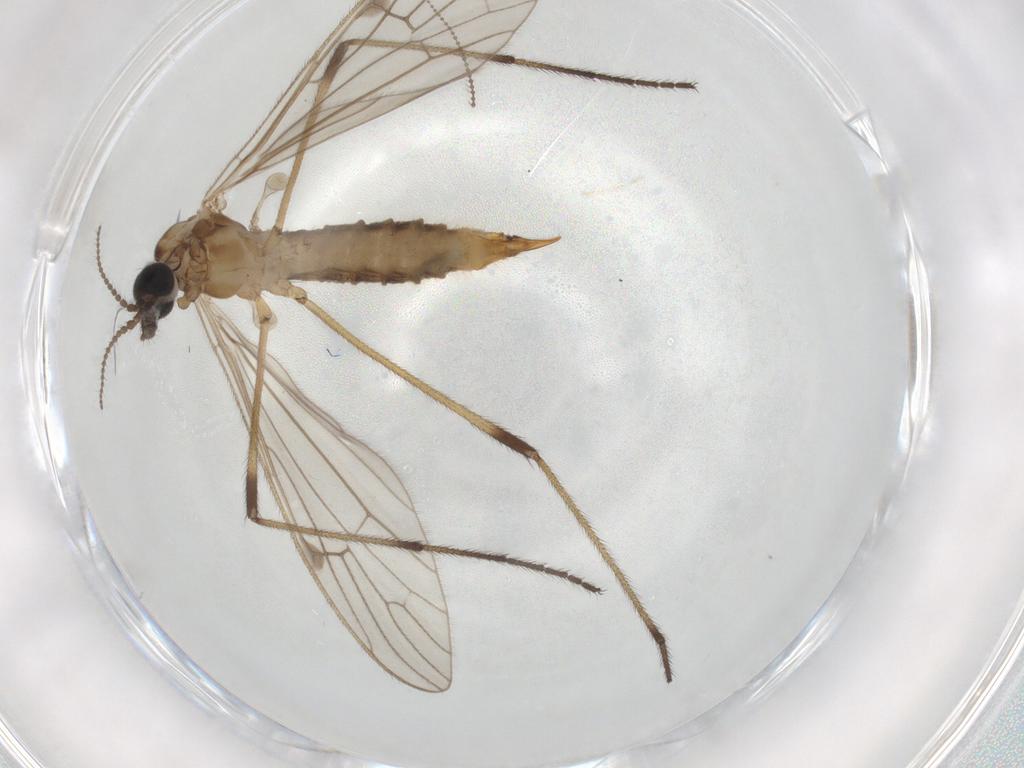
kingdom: Animalia
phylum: Arthropoda
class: Insecta
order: Diptera
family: Limoniidae
